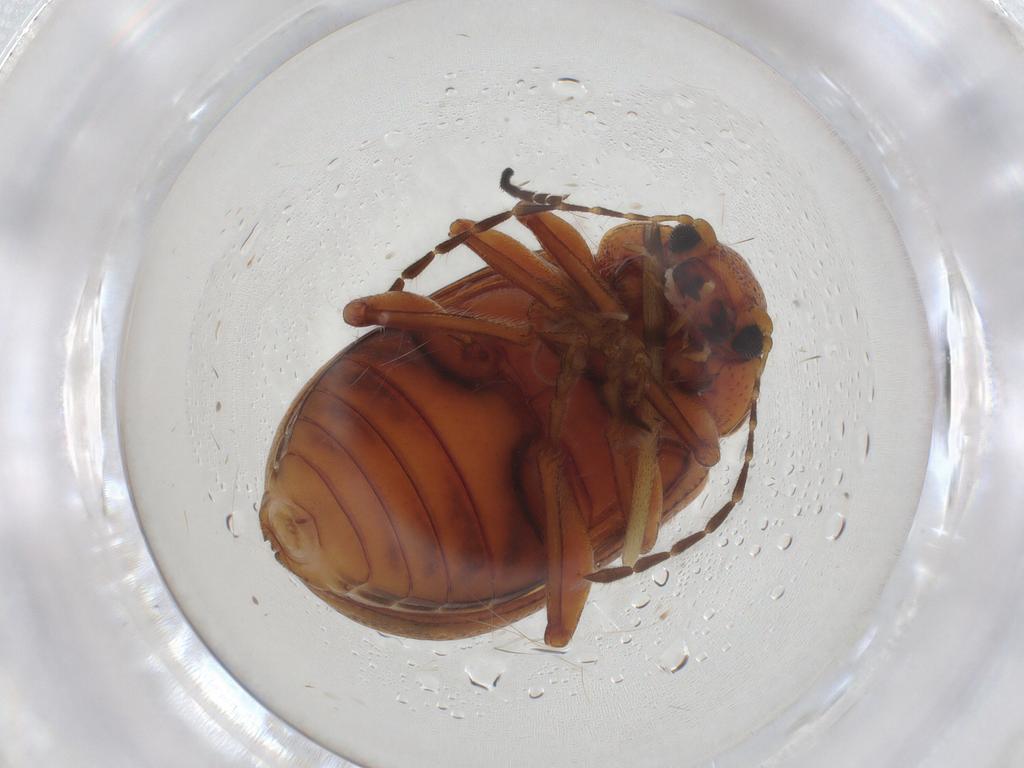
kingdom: Animalia
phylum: Arthropoda
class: Insecta
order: Coleoptera
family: Chrysomelidae
